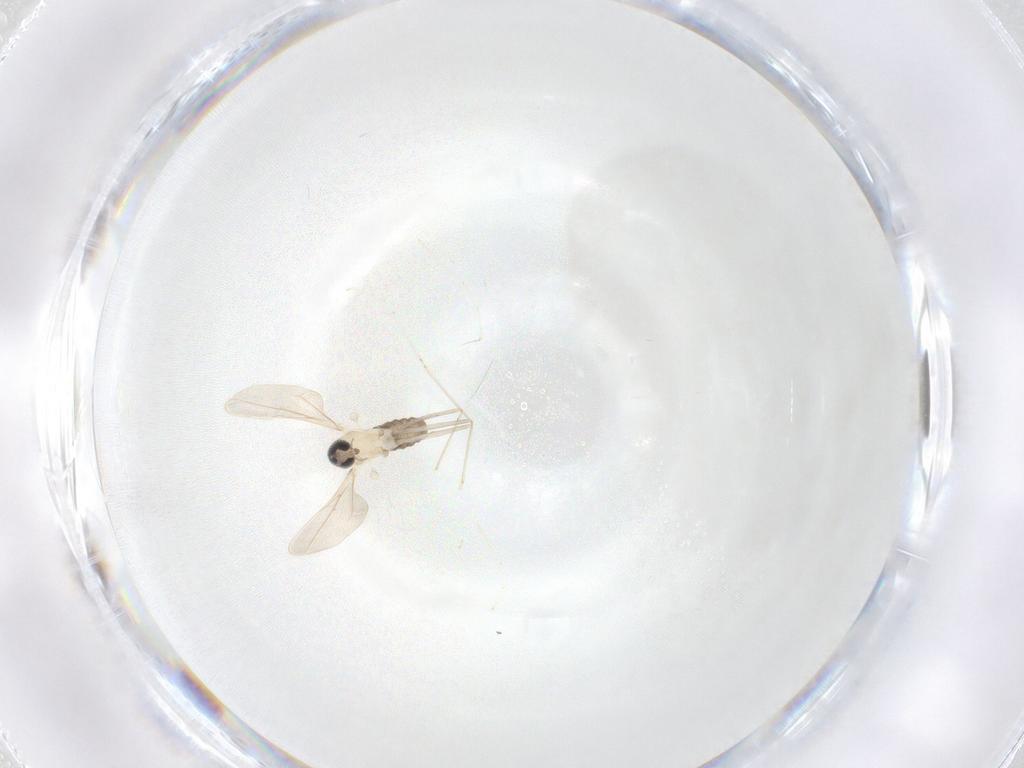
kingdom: Animalia
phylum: Arthropoda
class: Insecta
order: Diptera
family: Cecidomyiidae
